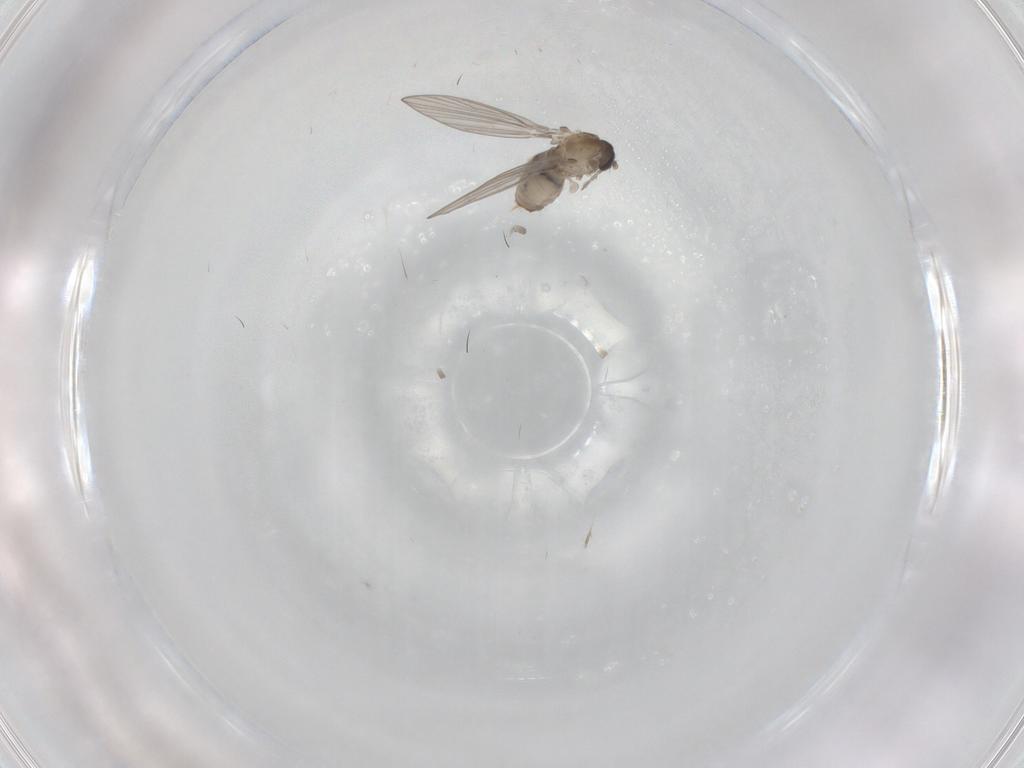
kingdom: Animalia
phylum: Arthropoda
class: Insecta
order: Diptera
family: Psychodidae
